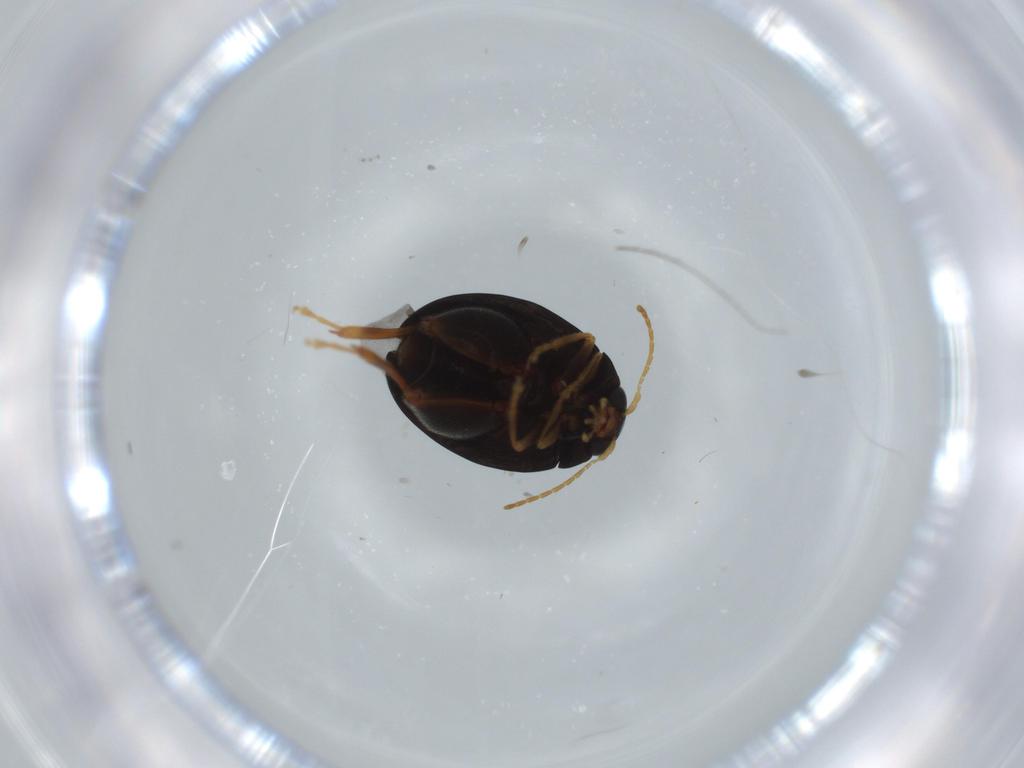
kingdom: Animalia
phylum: Arthropoda
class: Insecta
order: Coleoptera
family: Chrysomelidae
